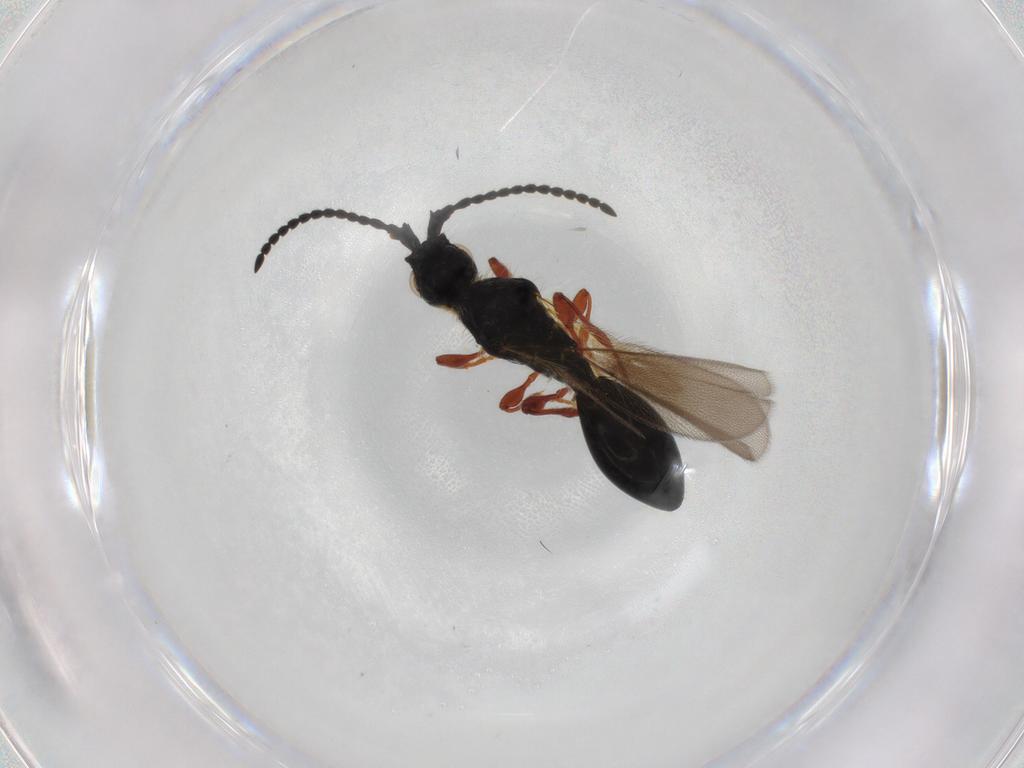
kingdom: Animalia
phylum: Arthropoda
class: Insecta
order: Hymenoptera
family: Diapriidae
